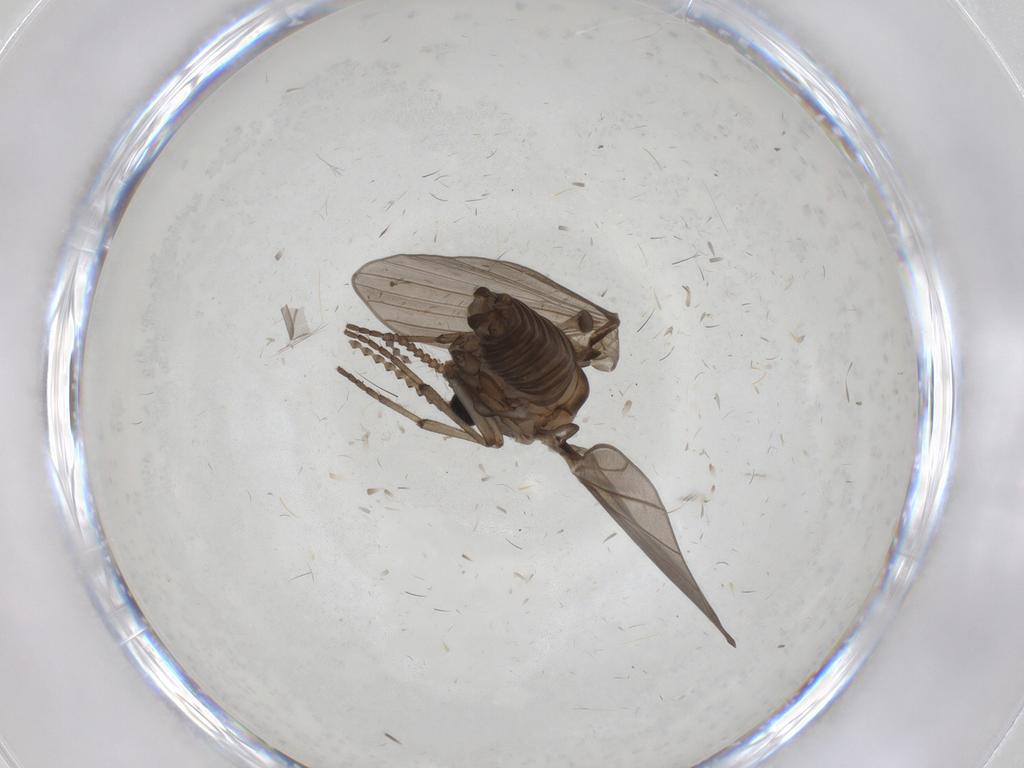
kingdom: Animalia
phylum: Arthropoda
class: Insecta
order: Diptera
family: Psychodidae
